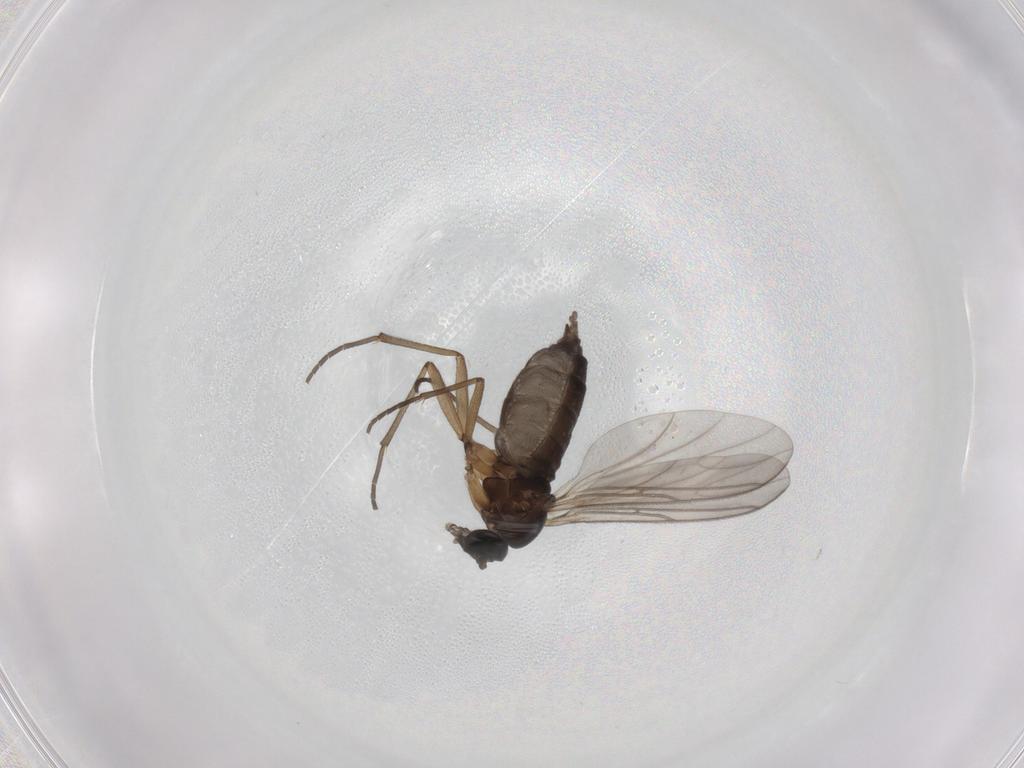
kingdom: Animalia
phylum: Arthropoda
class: Insecta
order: Diptera
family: Sciaridae
